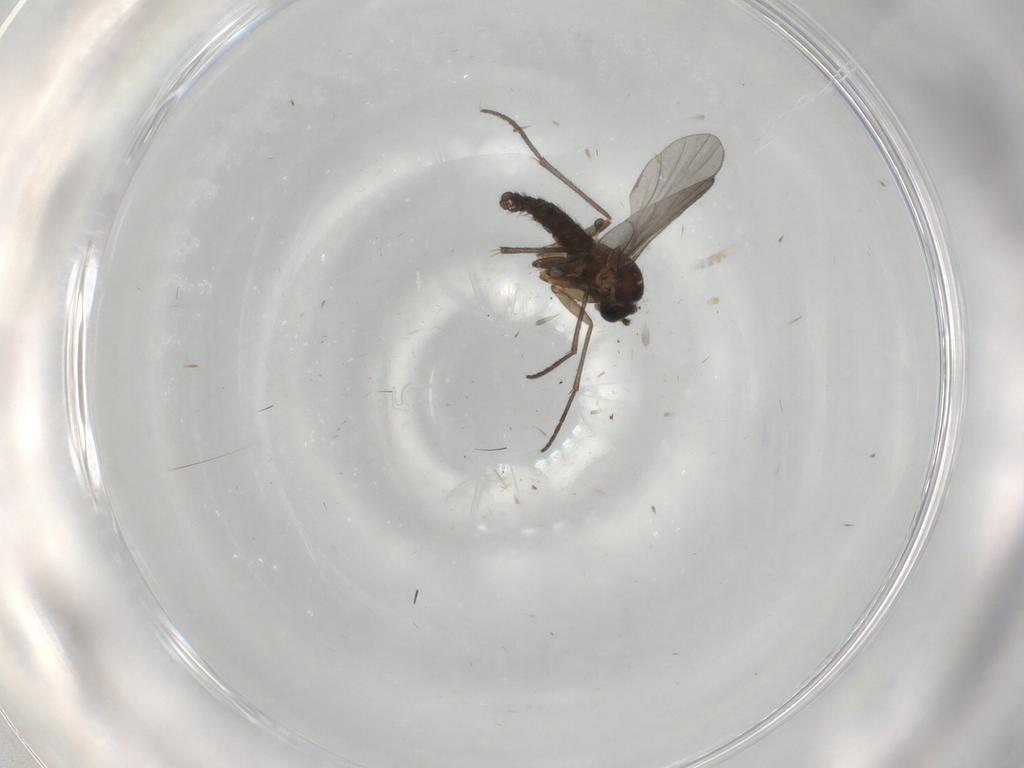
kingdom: Animalia
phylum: Arthropoda
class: Insecta
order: Diptera
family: Sciaridae
